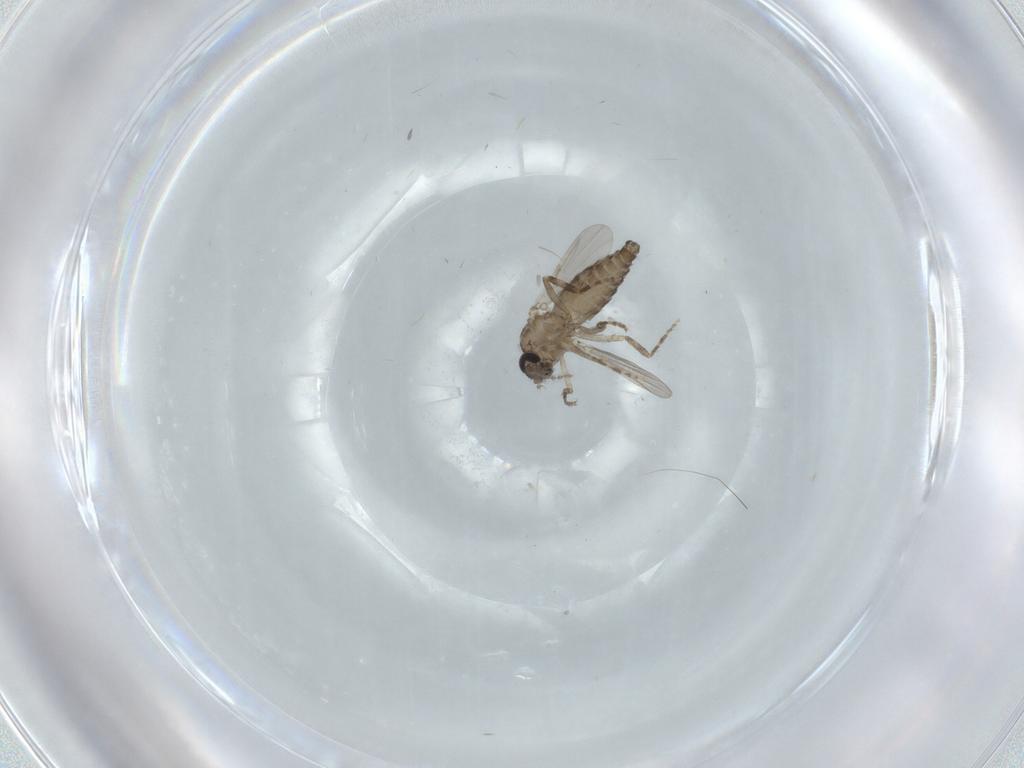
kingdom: Animalia
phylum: Arthropoda
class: Insecta
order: Diptera
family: Ceratopogonidae
